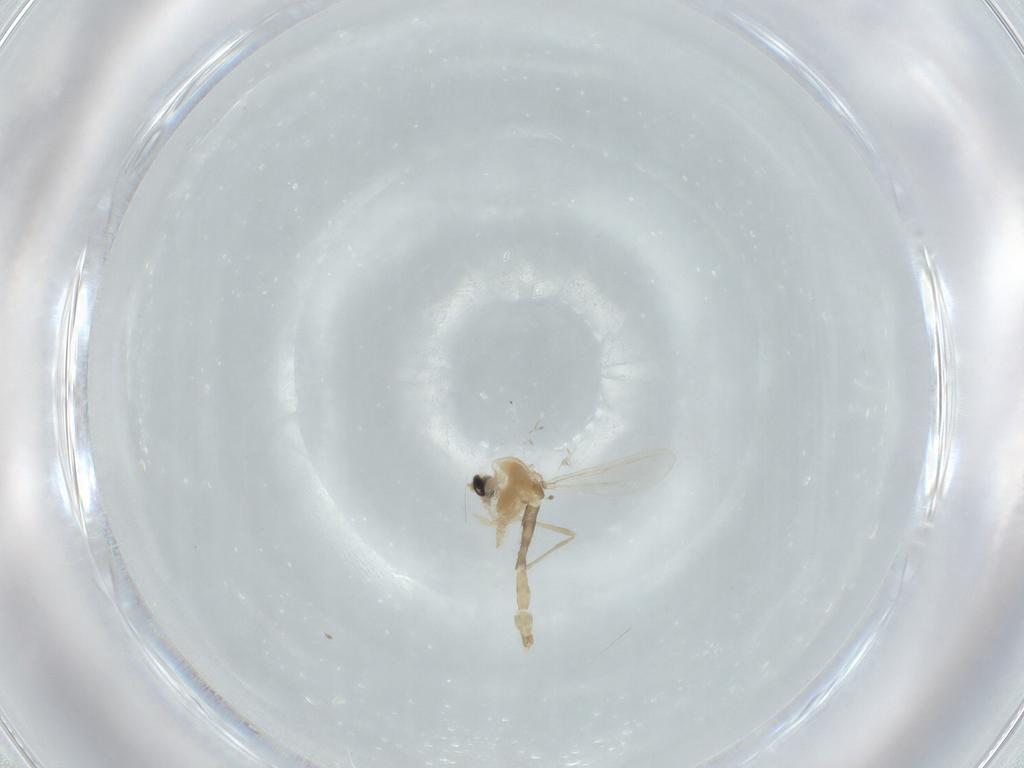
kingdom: Animalia
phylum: Arthropoda
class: Insecta
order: Diptera
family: Chironomidae
